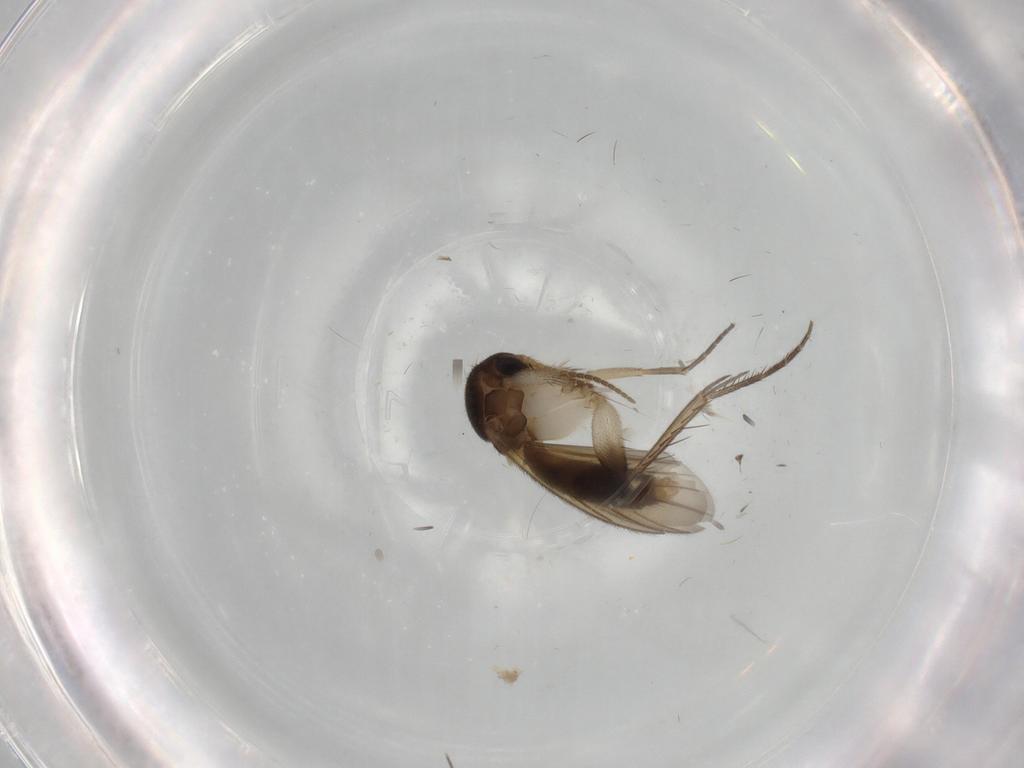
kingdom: Animalia
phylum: Arthropoda
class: Insecta
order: Diptera
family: Mycetophilidae
